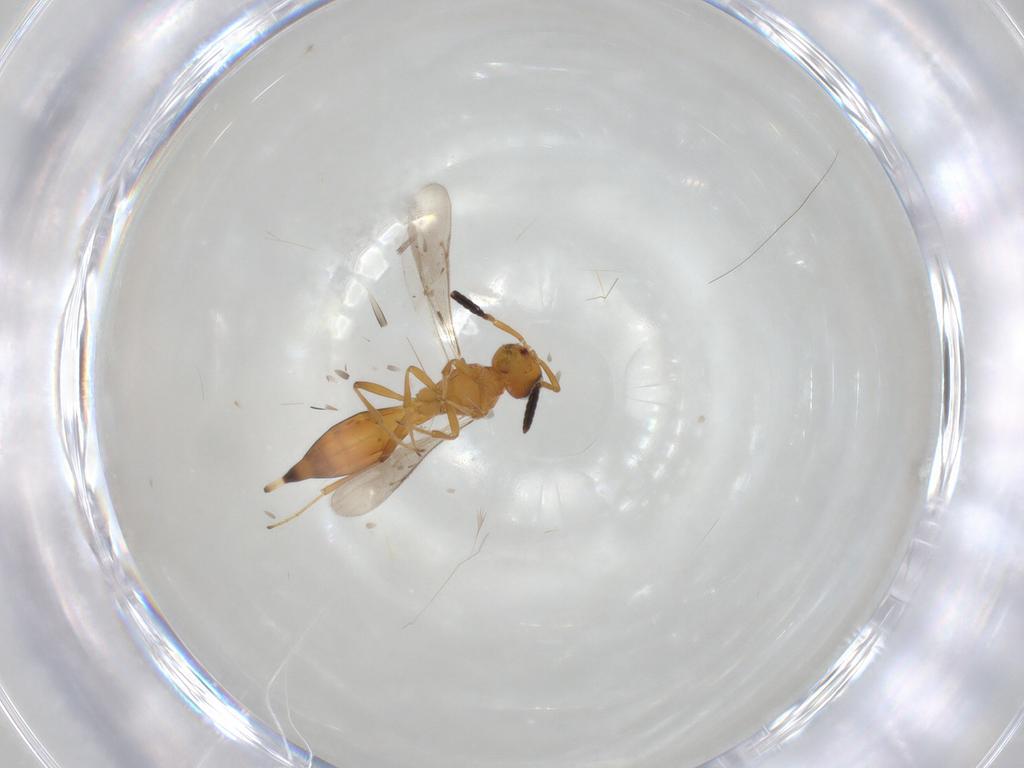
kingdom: Animalia
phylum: Arthropoda
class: Insecta
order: Hymenoptera
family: Scelionidae
